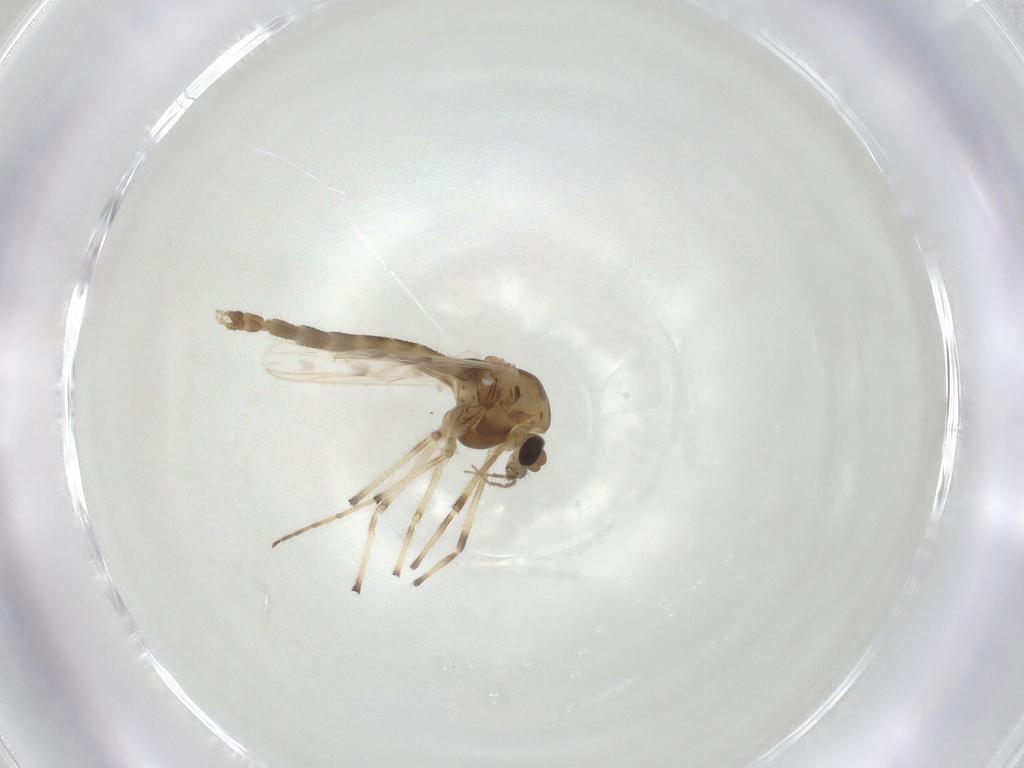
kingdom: Animalia
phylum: Arthropoda
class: Insecta
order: Diptera
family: Chironomidae
